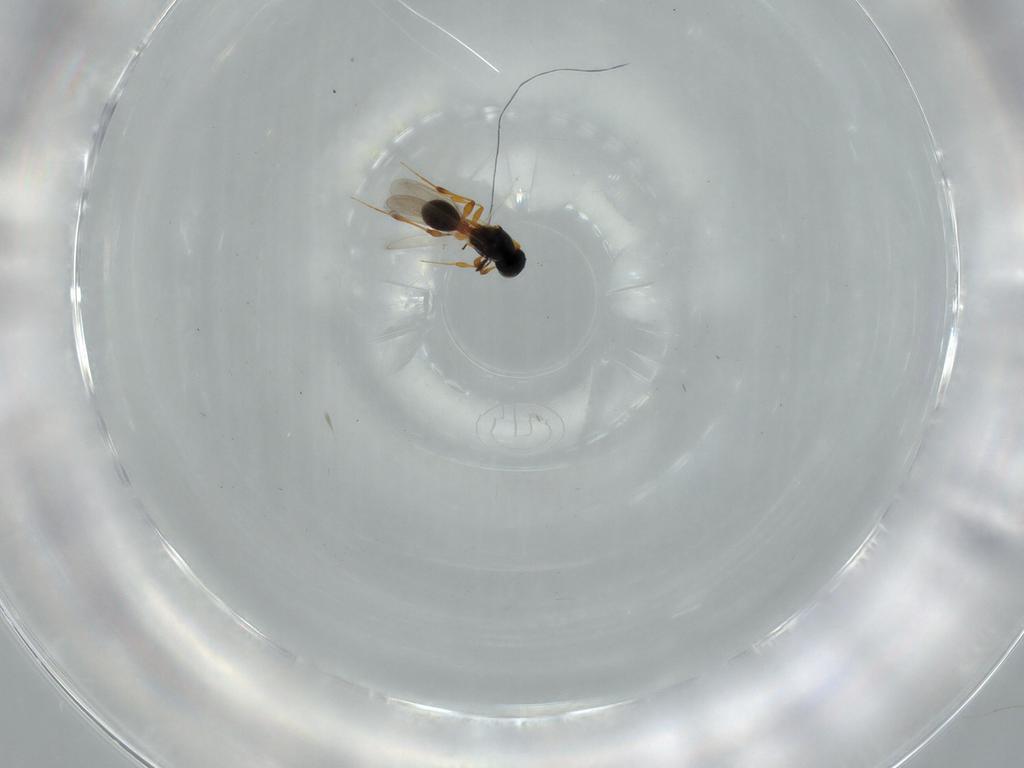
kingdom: Animalia
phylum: Arthropoda
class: Insecta
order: Hymenoptera
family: Platygastridae
